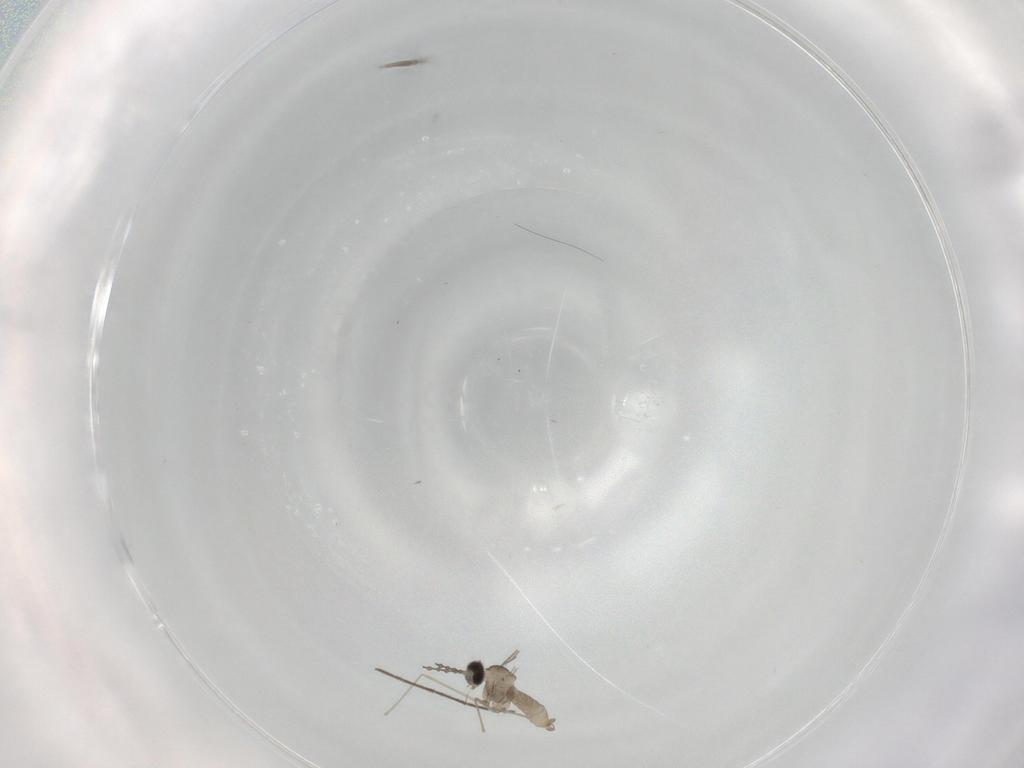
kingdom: Animalia
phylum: Arthropoda
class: Insecta
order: Diptera
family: Chironomidae
